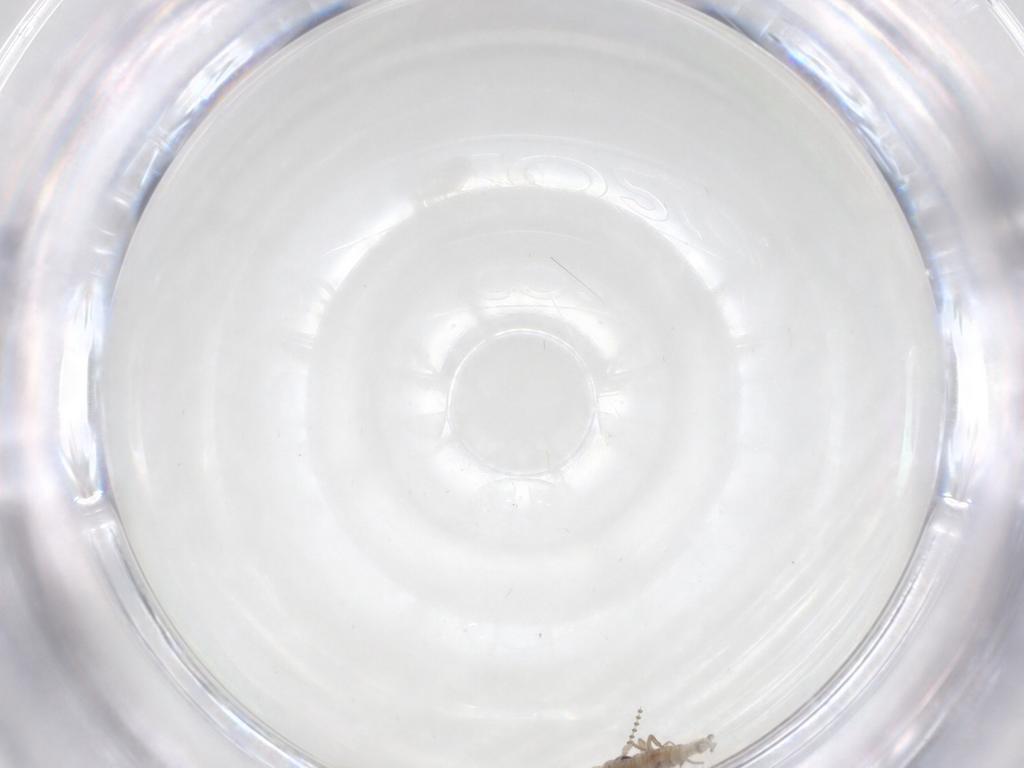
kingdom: Animalia
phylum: Arthropoda
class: Insecta
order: Diptera
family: Psychodidae
